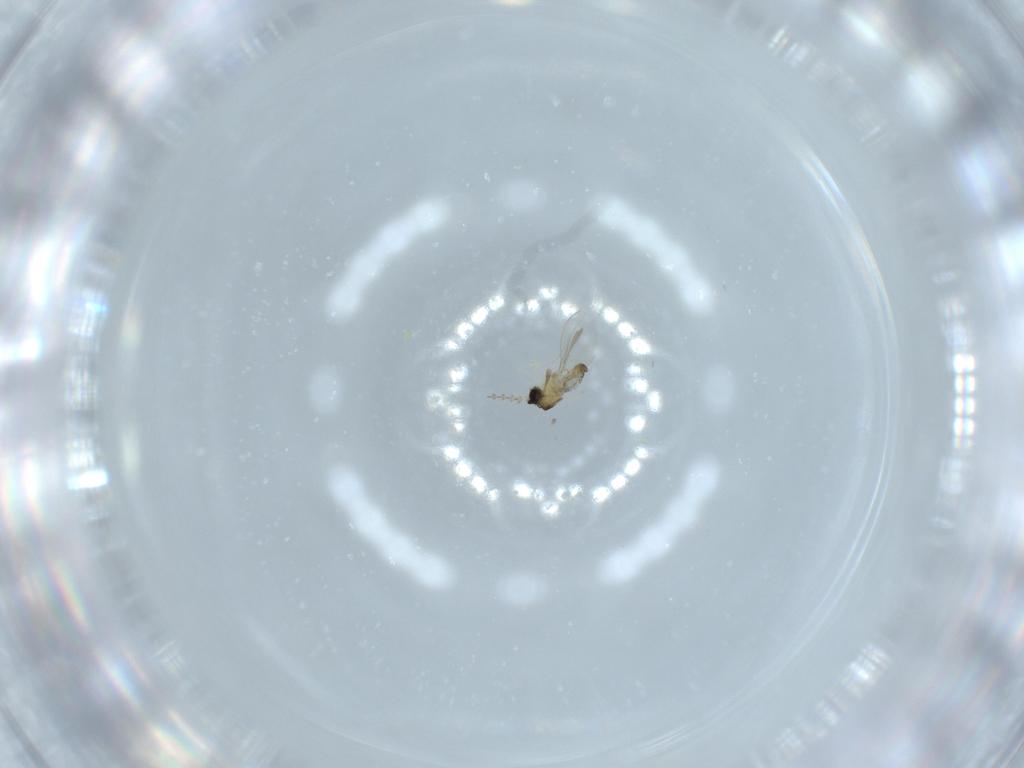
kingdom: Animalia
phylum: Arthropoda
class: Insecta
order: Diptera
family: Cecidomyiidae
